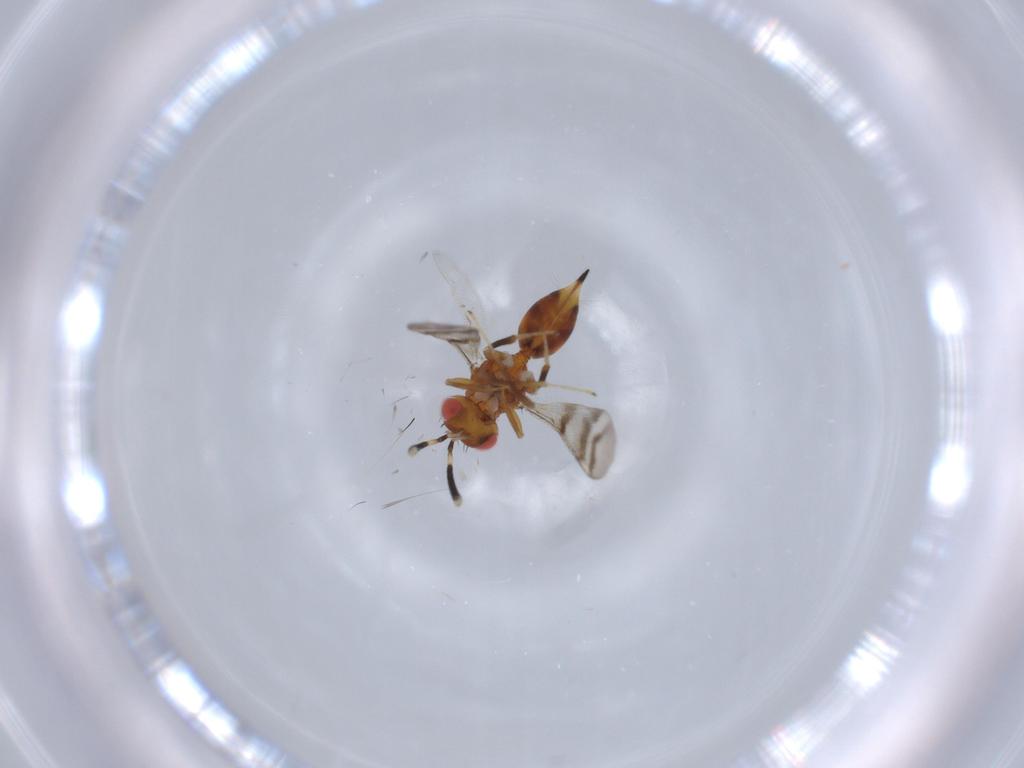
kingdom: Animalia
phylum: Arthropoda
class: Insecta
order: Hymenoptera
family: Diparidae
